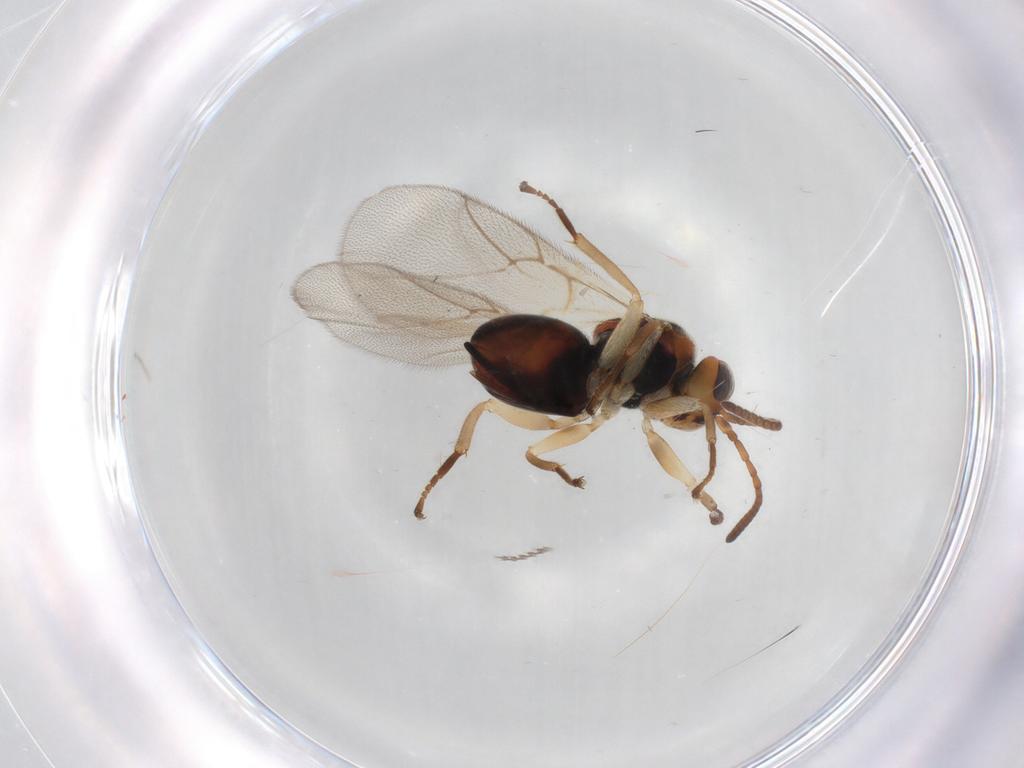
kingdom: Animalia
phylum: Arthropoda
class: Insecta
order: Hymenoptera
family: Cynipidae
